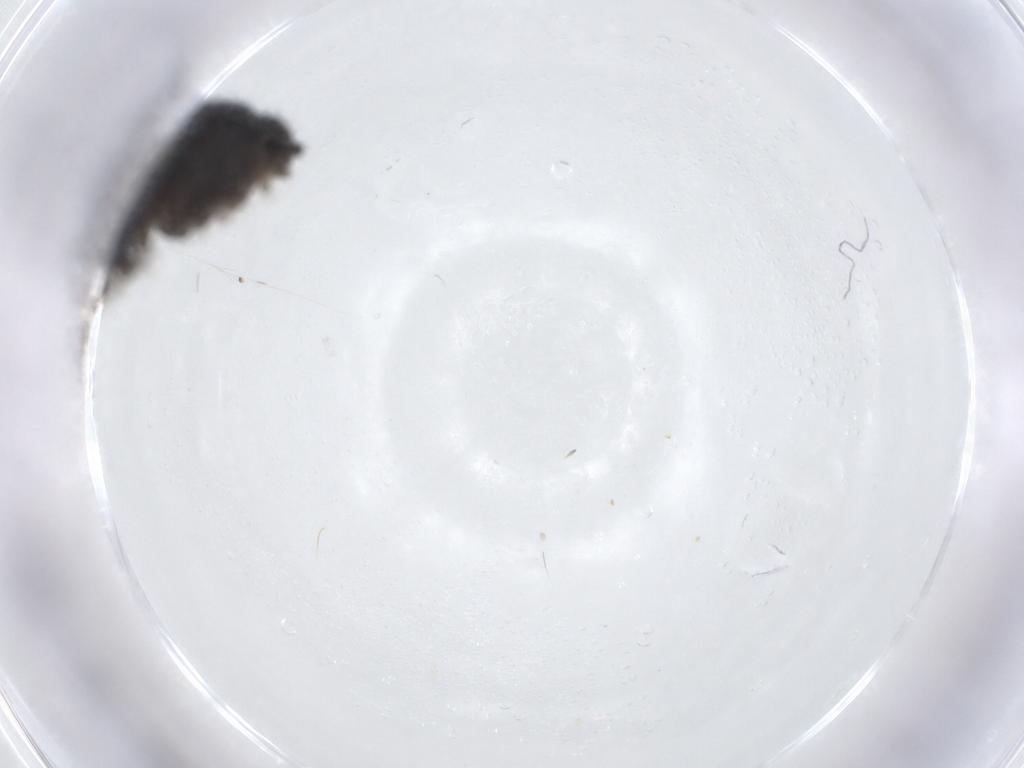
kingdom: Animalia
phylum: Arthropoda
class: Insecta
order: Diptera
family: Phoridae
